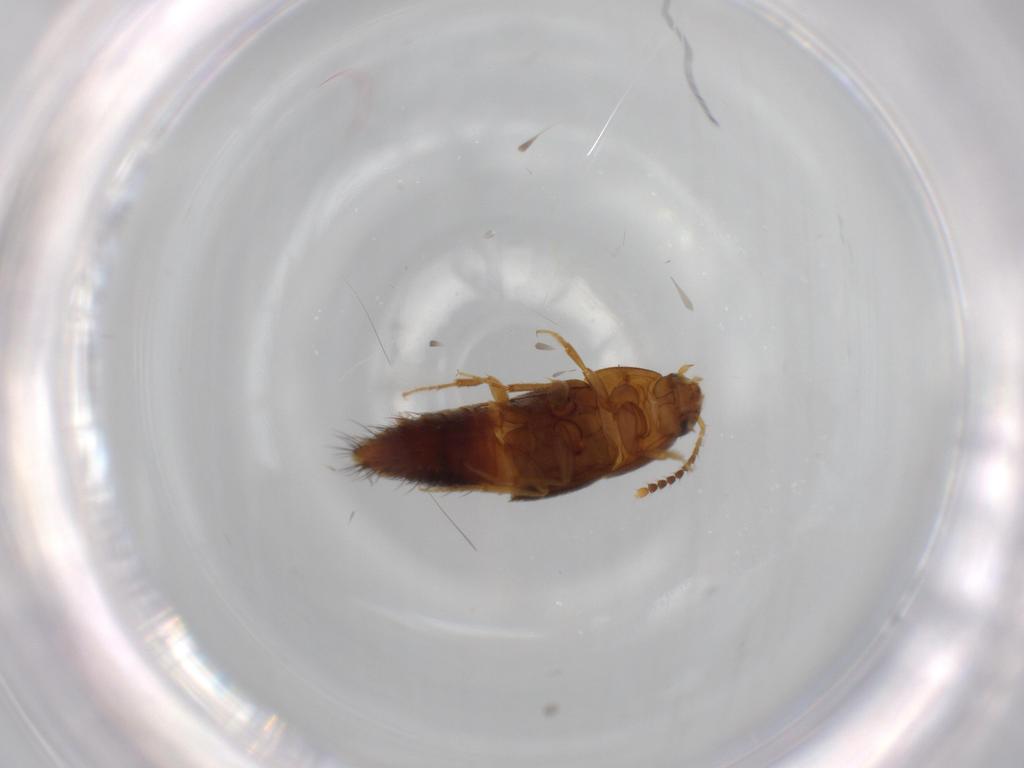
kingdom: Animalia
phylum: Arthropoda
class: Insecta
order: Coleoptera
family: Staphylinidae
